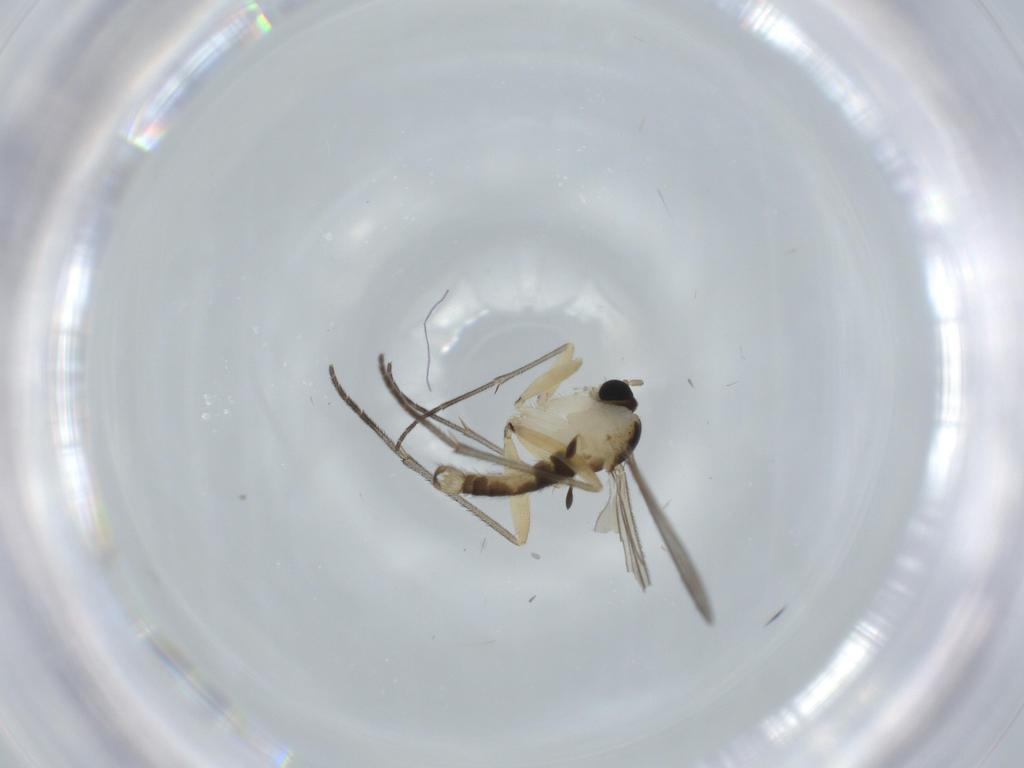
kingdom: Animalia
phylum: Arthropoda
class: Insecta
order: Diptera
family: Sciaridae
